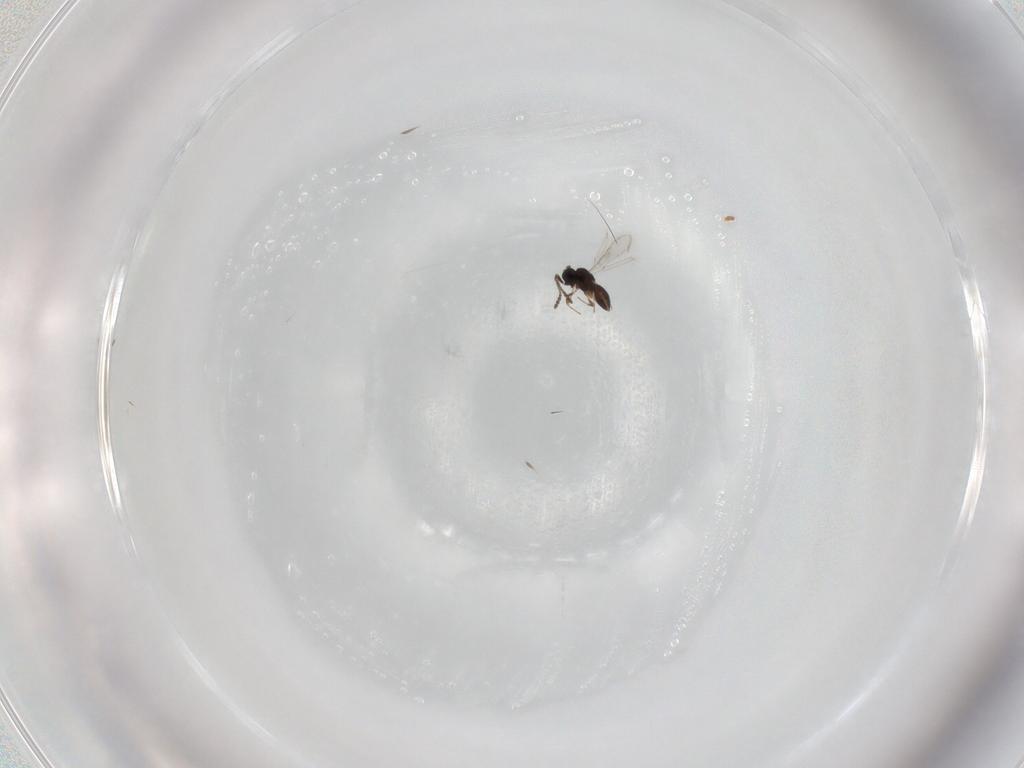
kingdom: Animalia
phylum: Arthropoda
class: Insecta
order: Hymenoptera
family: Scelionidae
